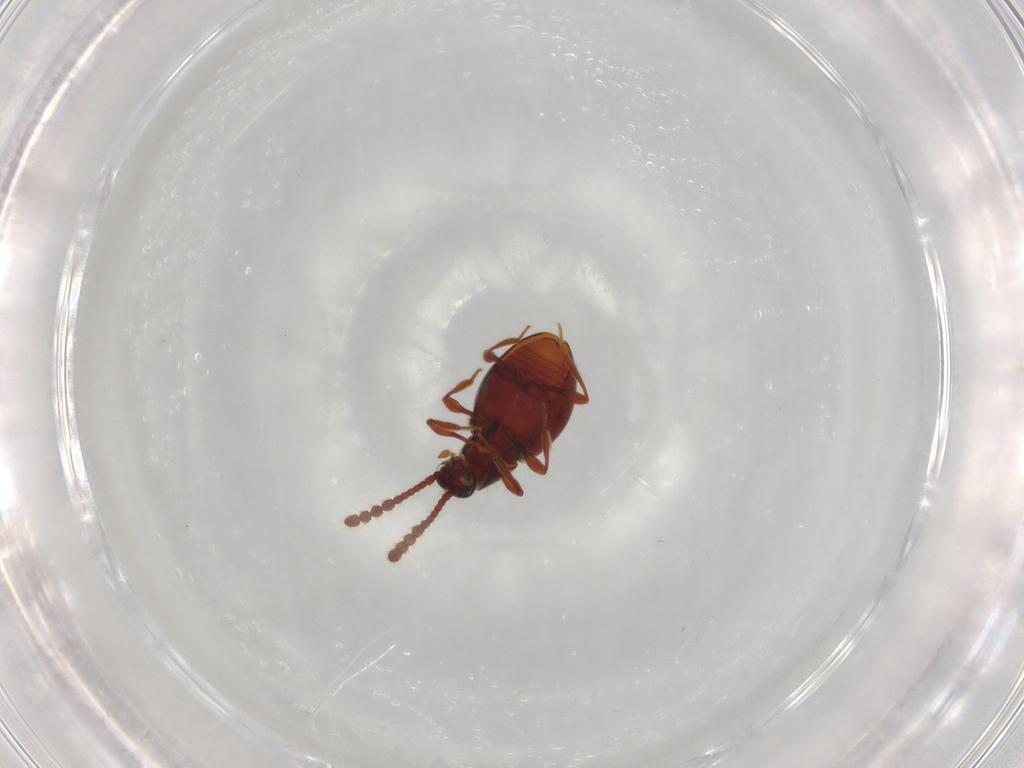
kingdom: Animalia
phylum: Arthropoda
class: Insecta
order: Coleoptera
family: Staphylinidae
